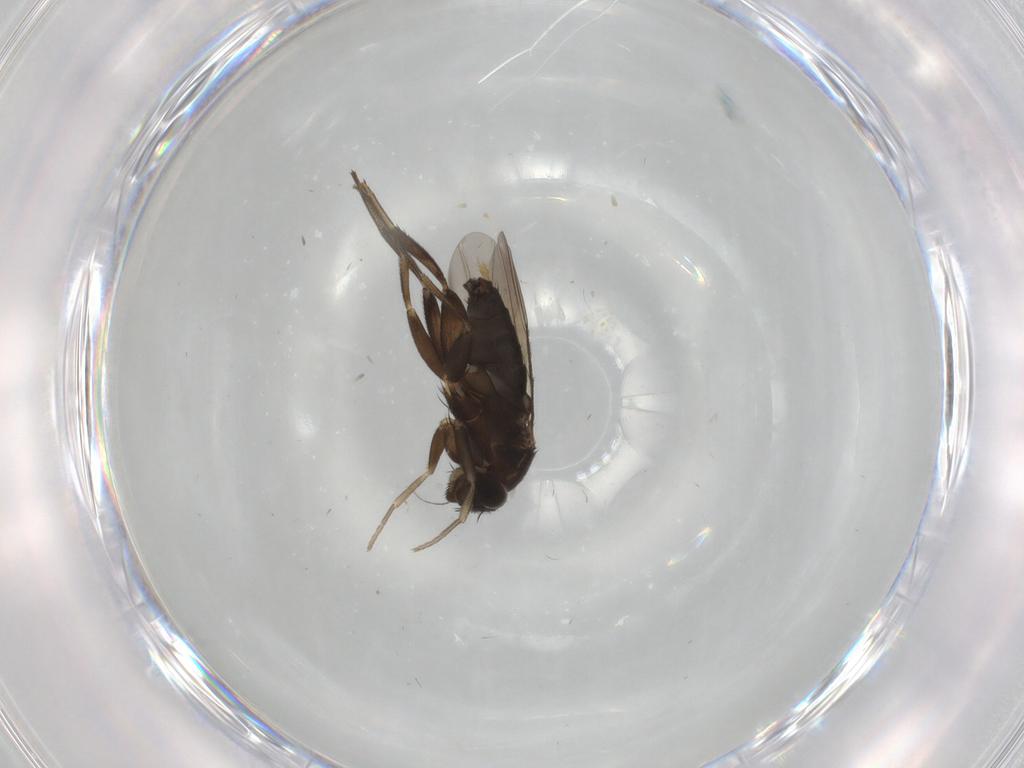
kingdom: Animalia
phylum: Arthropoda
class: Insecta
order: Diptera
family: Phoridae
